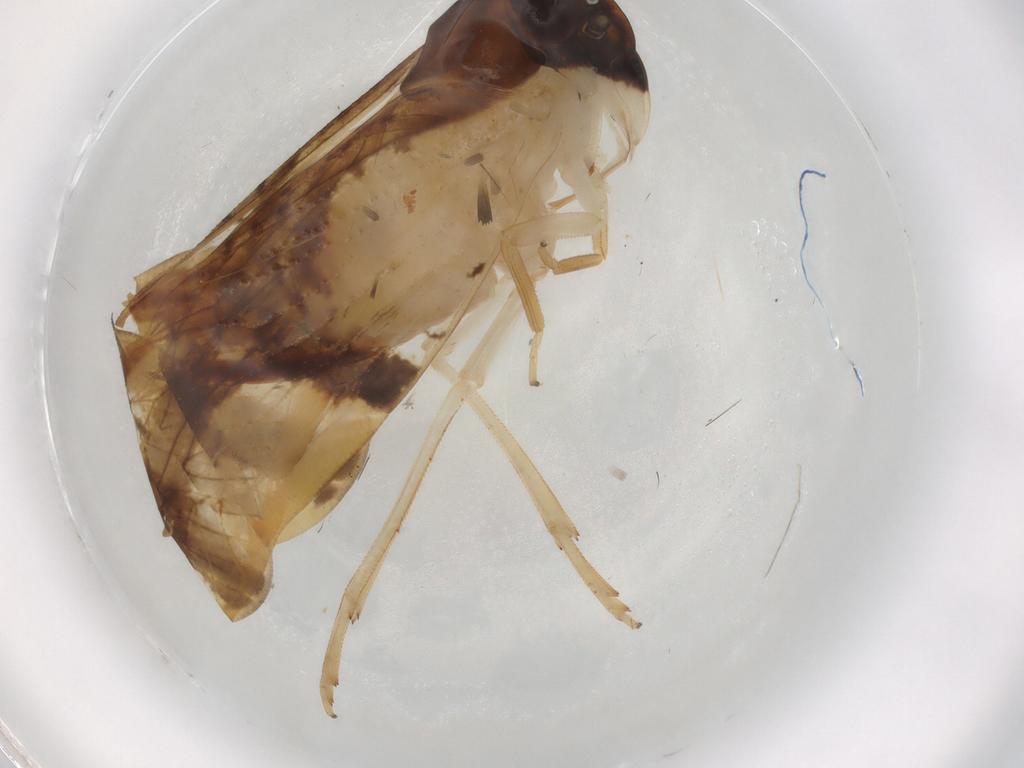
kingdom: Animalia
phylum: Arthropoda
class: Insecta
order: Hemiptera
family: Cixiidae
